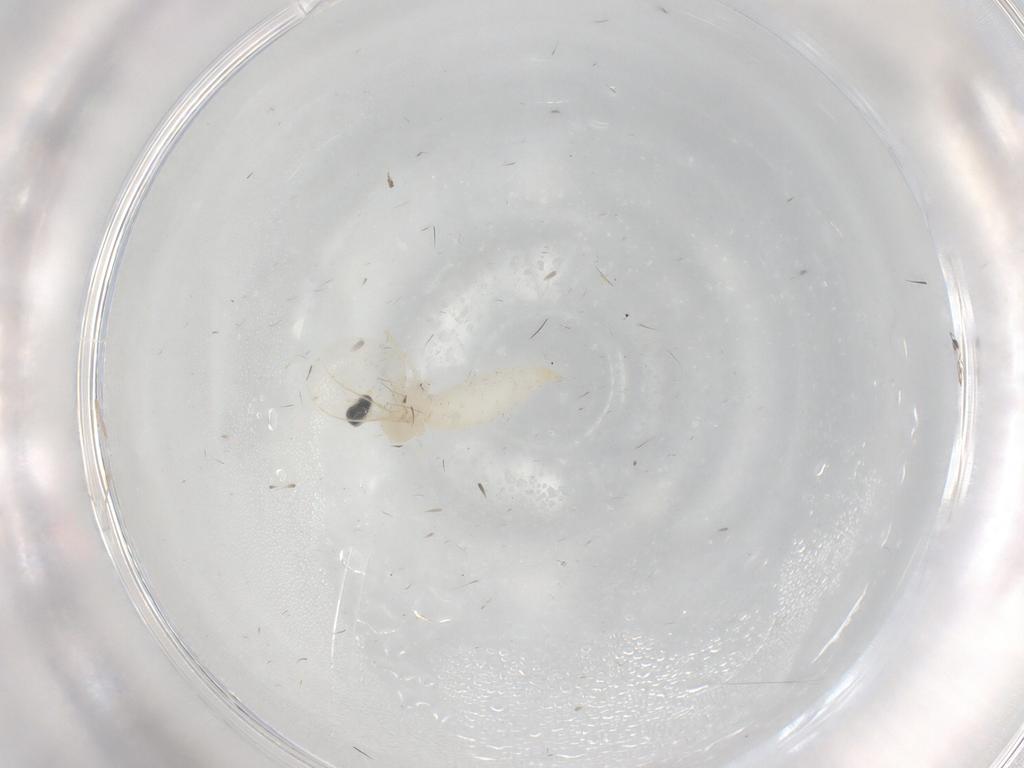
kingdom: Animalia
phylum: Arthropoda
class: Insecta
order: Diptera
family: Cecidomyiidae
